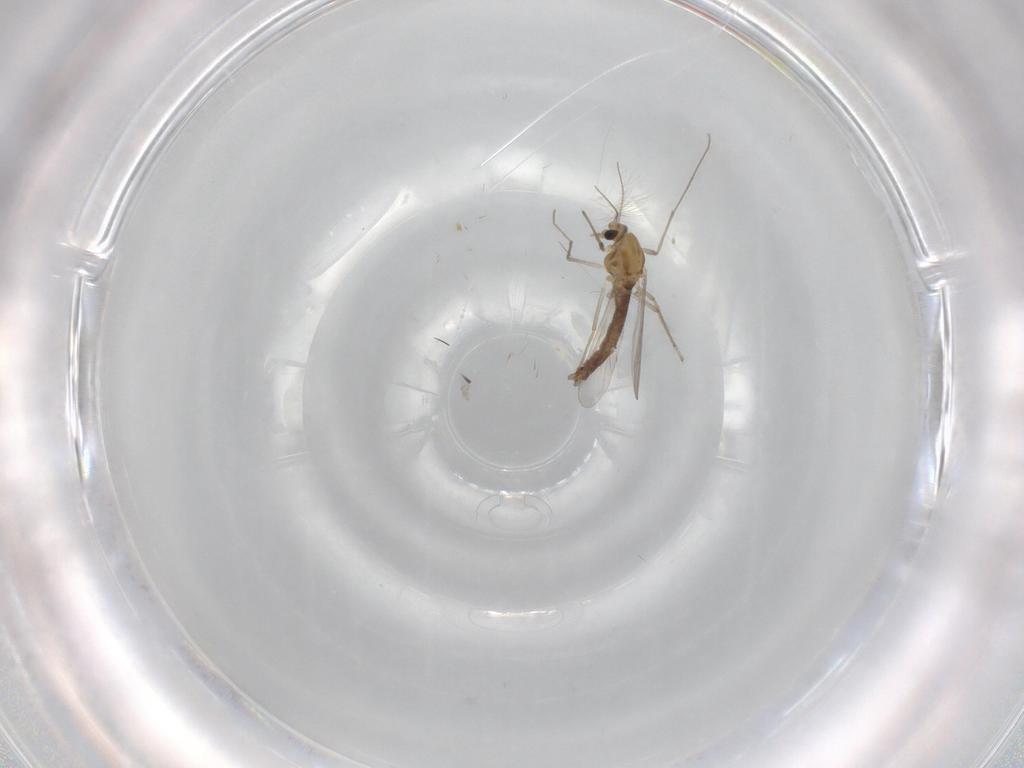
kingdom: Animalia
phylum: Arthropoda
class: Insecta
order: Diptera
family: Chironomidae
